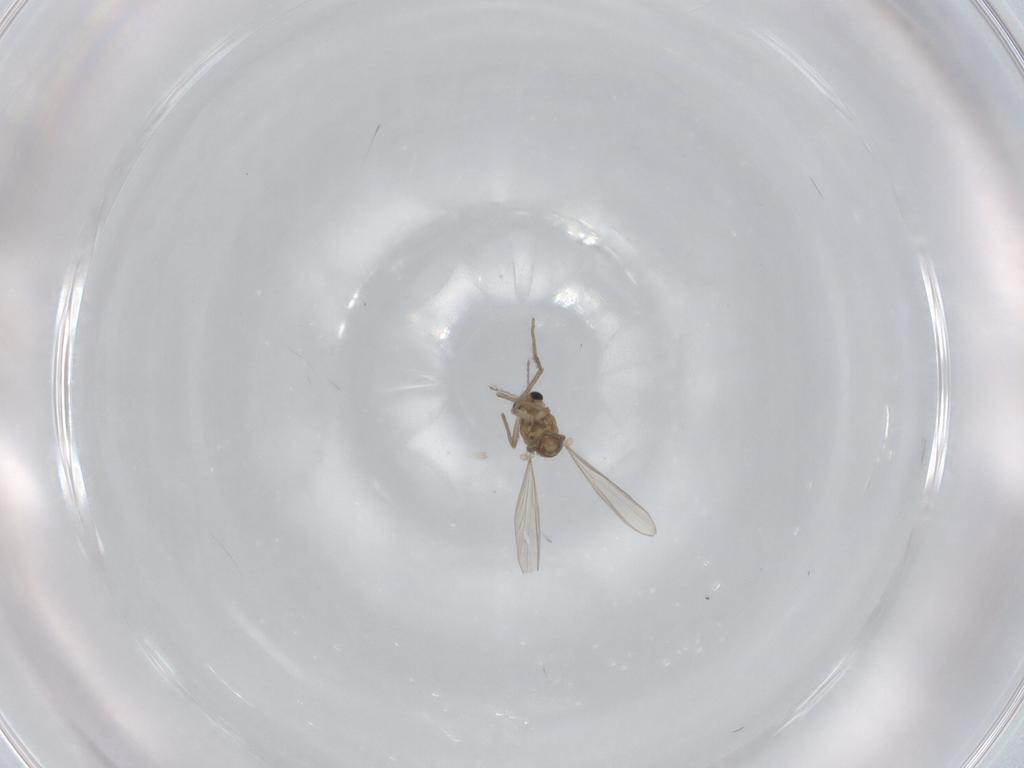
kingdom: Animalia
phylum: Arthropoda
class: Insecta
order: Diptera
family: Chironomidae
